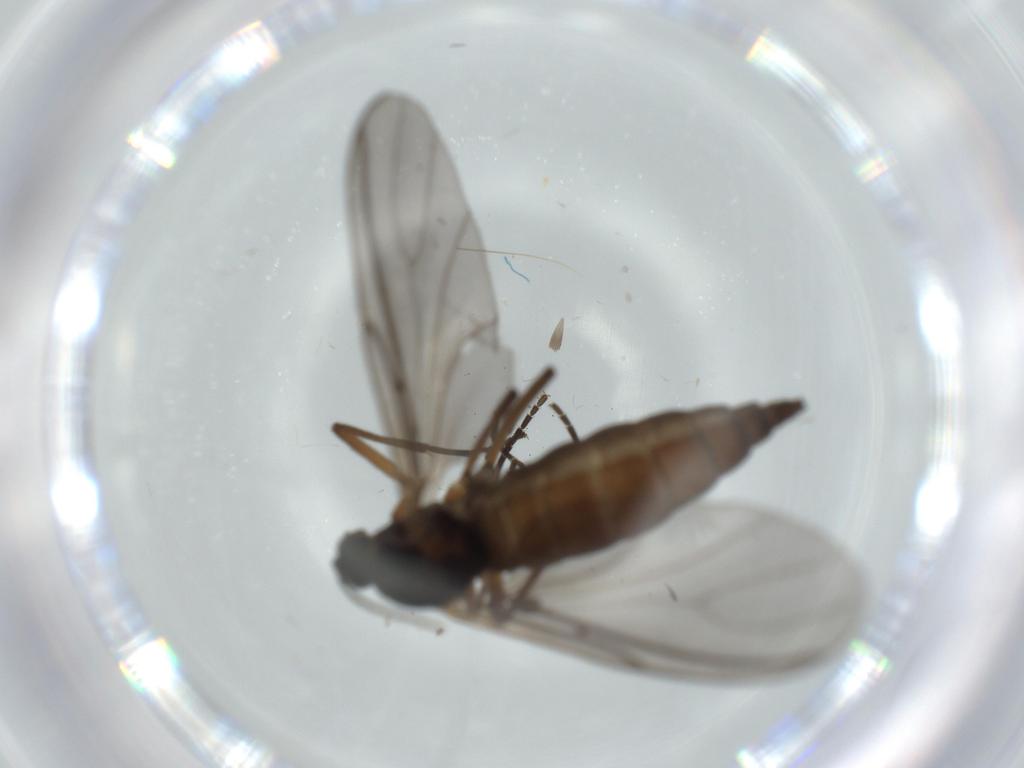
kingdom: Animalia
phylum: Arthropoda
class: Insecta
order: Diptera
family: Sciaridae
